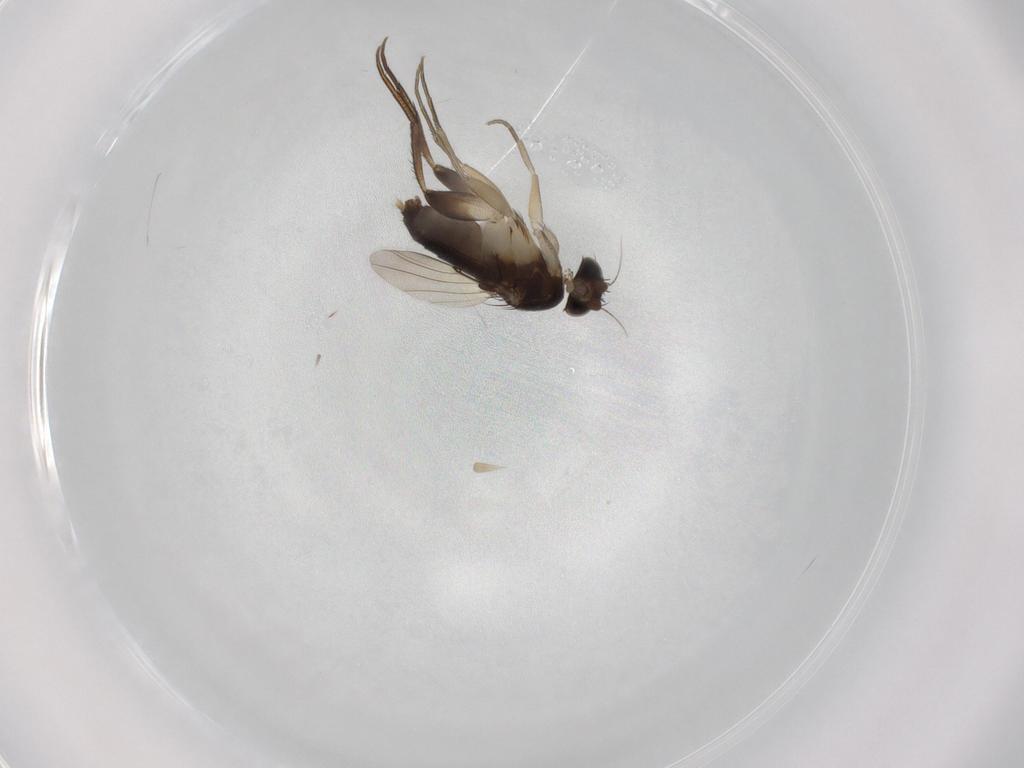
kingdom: Animalia
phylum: Arthropoda
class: Insecta
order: Diptera
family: Phoridae
